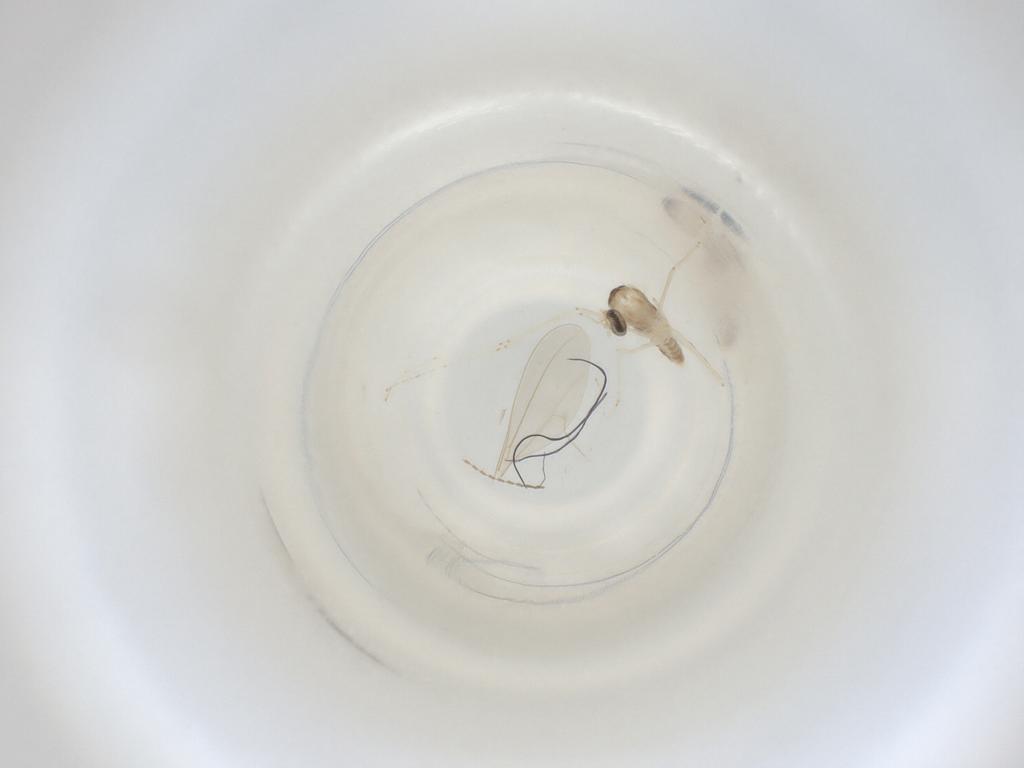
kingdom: Animalia
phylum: Arthropoda
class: Insecta
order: Diptera
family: Cecidomyiidae
